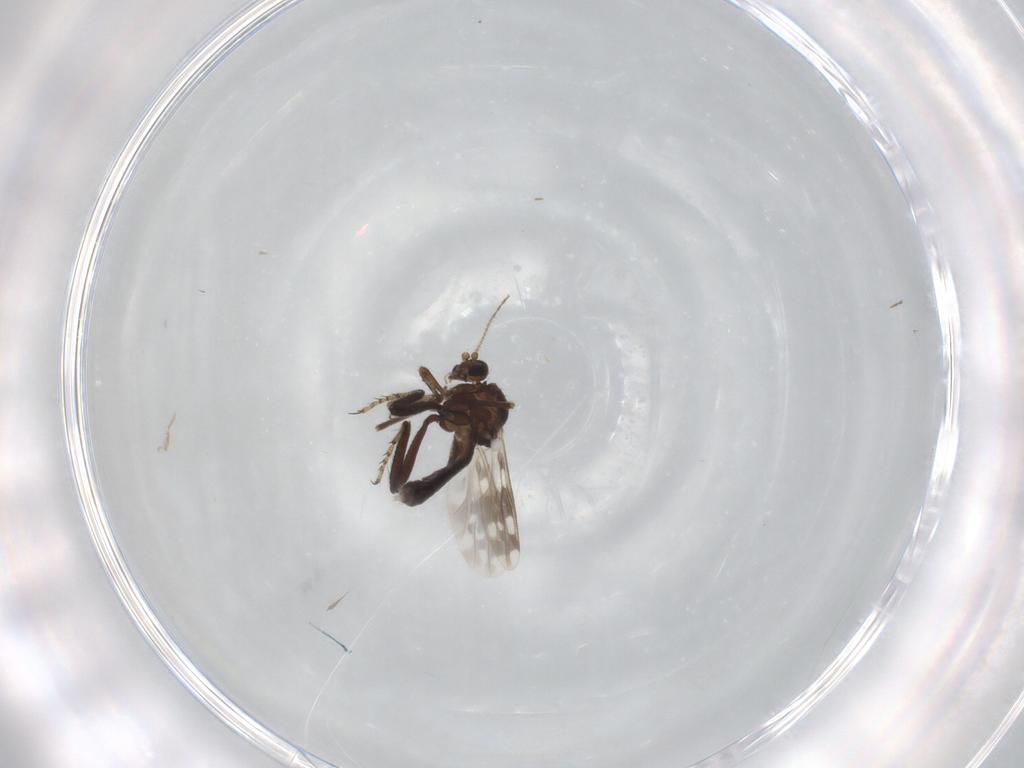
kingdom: Animalia
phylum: Arthropoda
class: Insecta
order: Diptera
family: Ceratopogonidae
